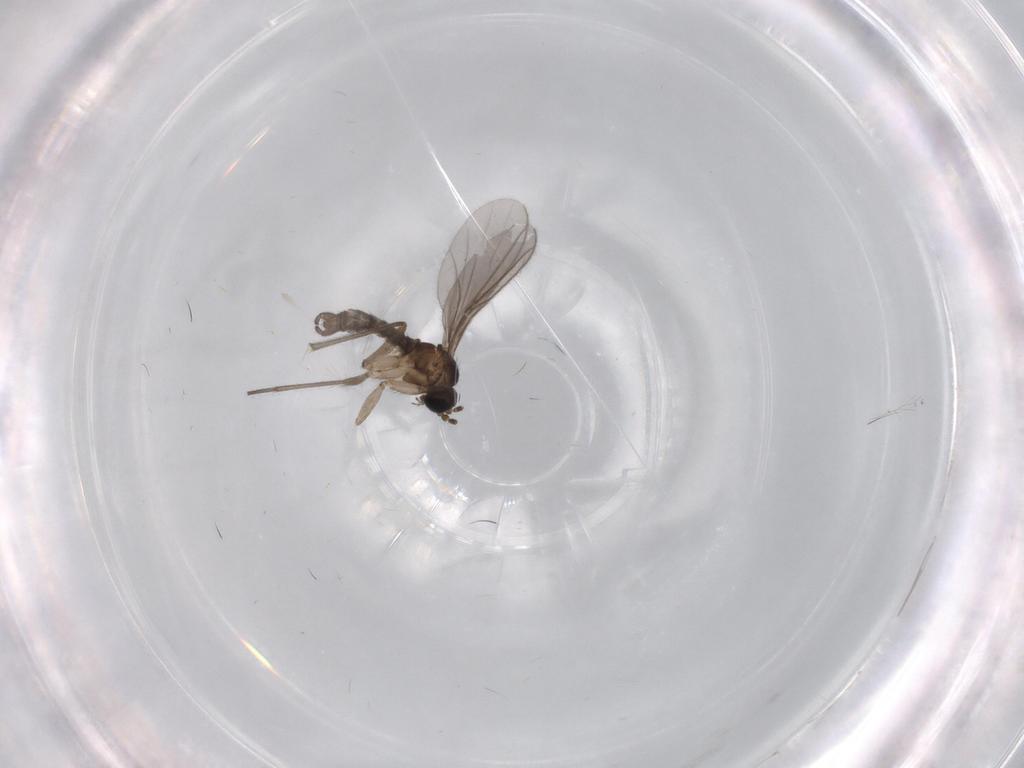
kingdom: Animalia
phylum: Arthropoda
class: Insecta
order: Diptera
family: Sciaridae
